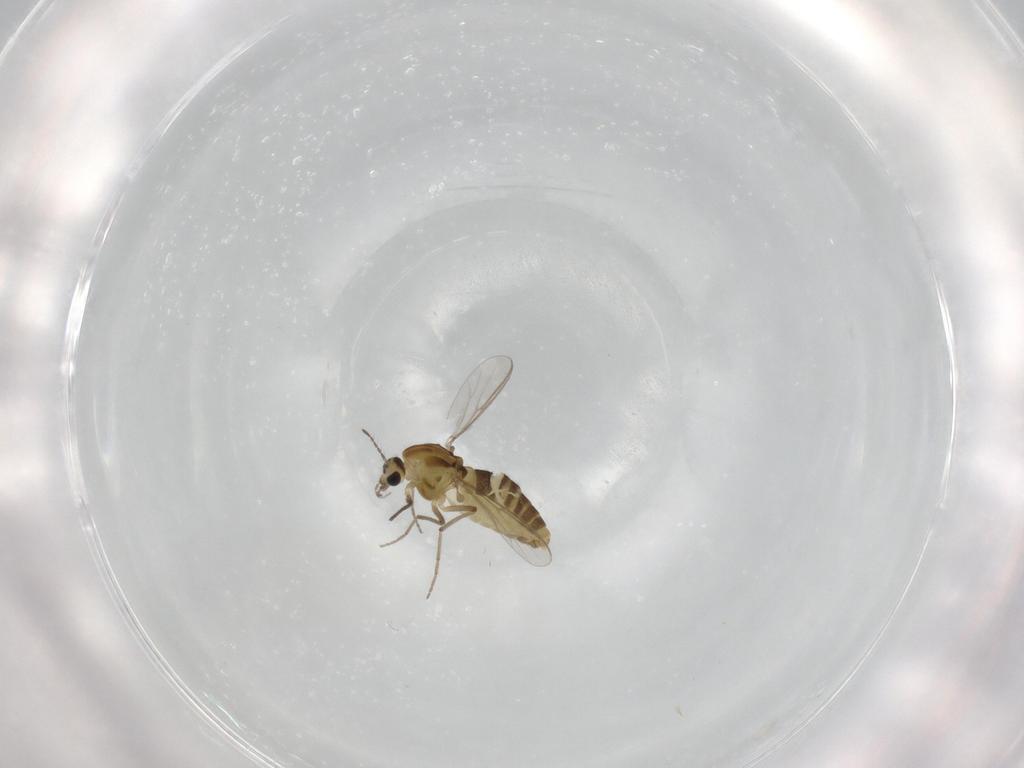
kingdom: Animalia
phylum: Arthropoda
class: Insecta
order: Diptera
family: Chironomidae
